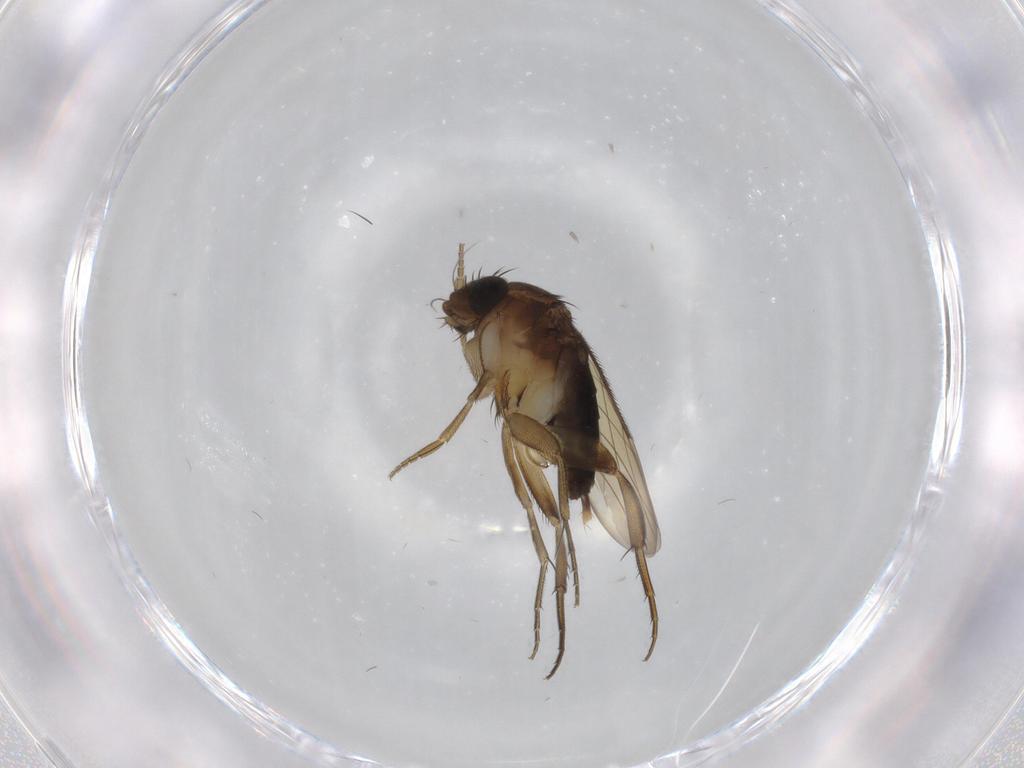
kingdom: Animalia
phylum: Arthropoda
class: Insecta
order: Diptera
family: Phoridae
